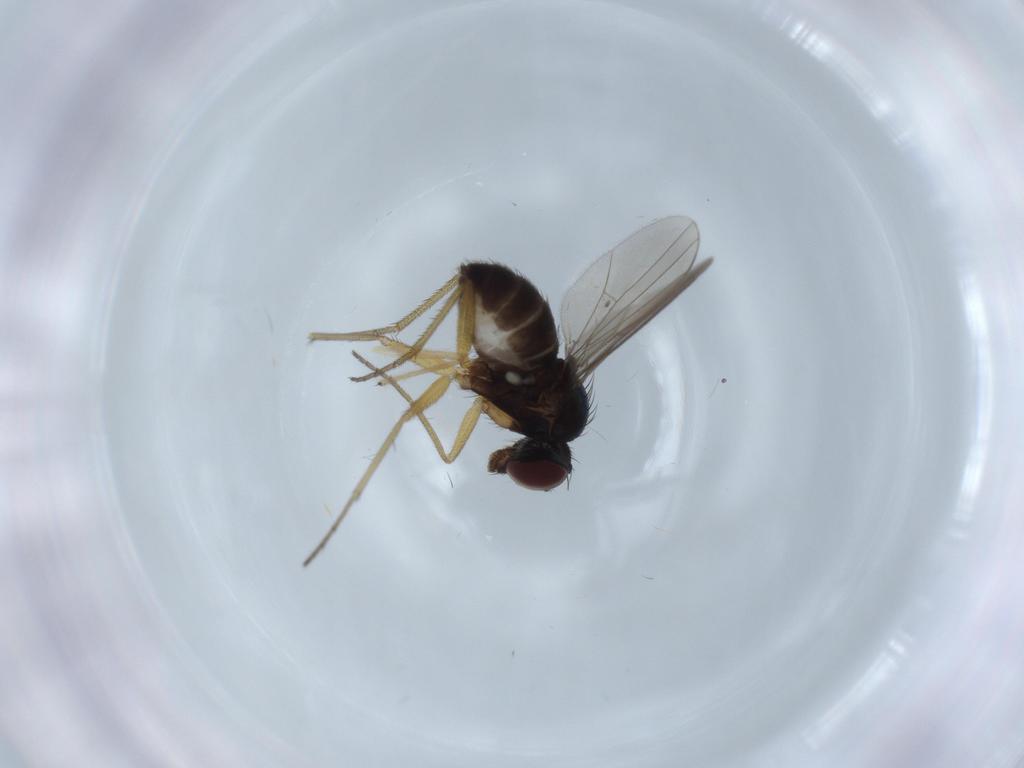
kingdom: Animalia
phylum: Arthropoda
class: Insecta
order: Diptera
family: Dolichopodidae
